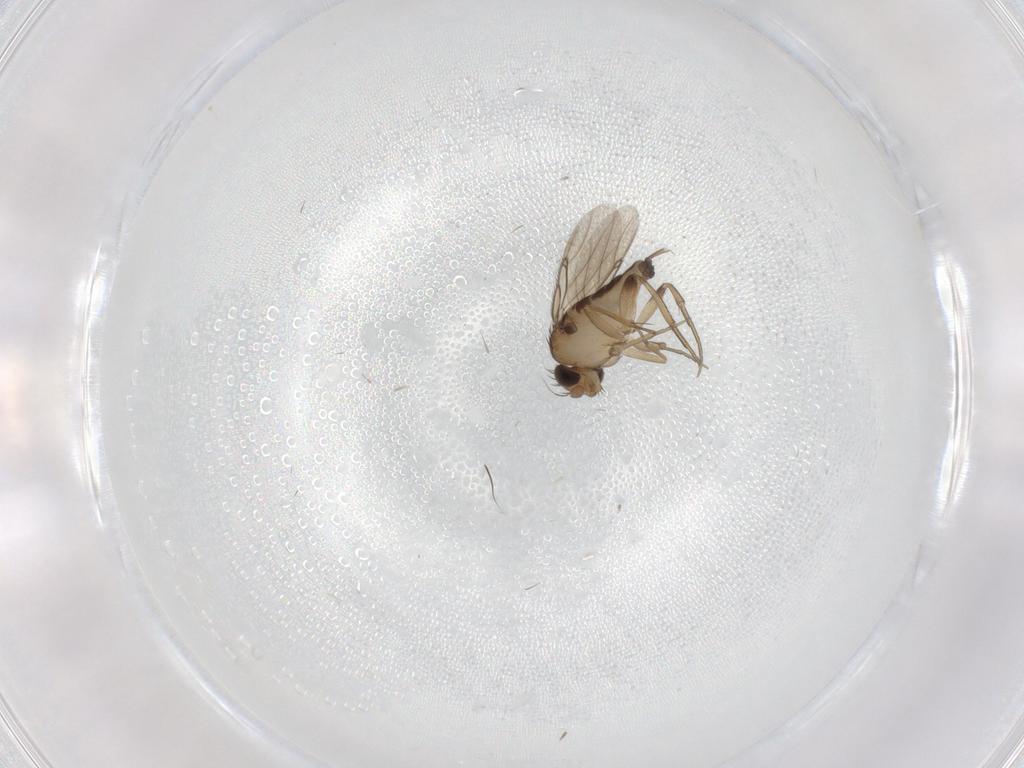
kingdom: Animalia
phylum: Arthropoda
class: Insecta
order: Diptera
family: Phoridae
